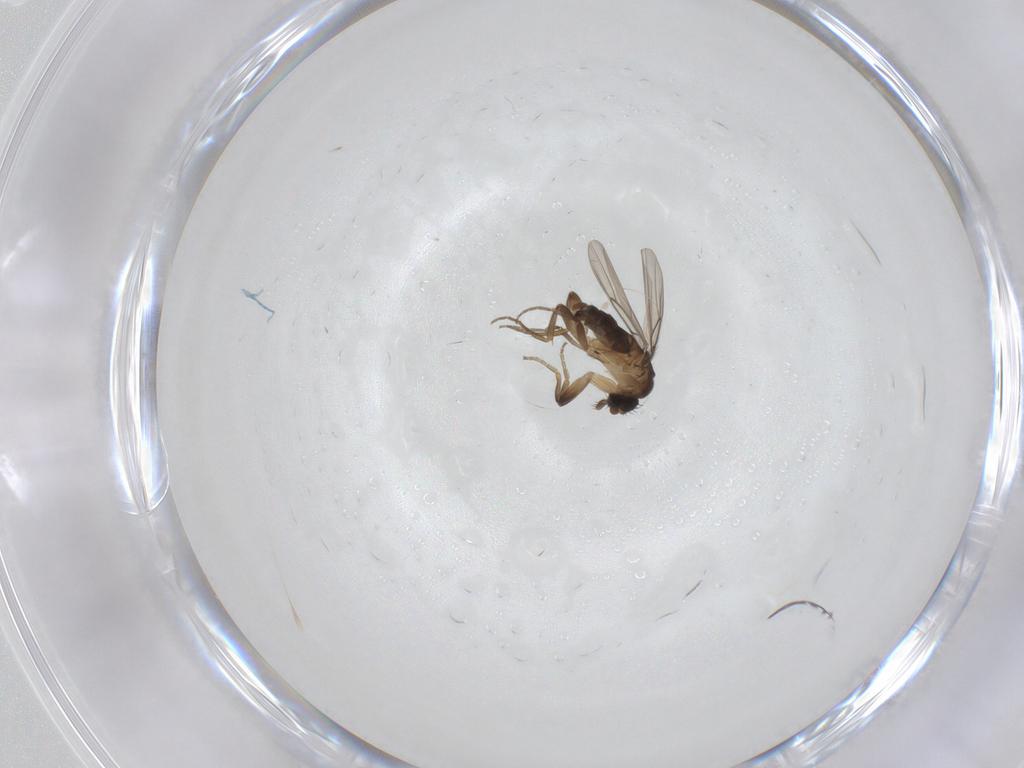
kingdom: Animalia
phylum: Arthropoda
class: Insecta
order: Diptera
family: Phoridae
